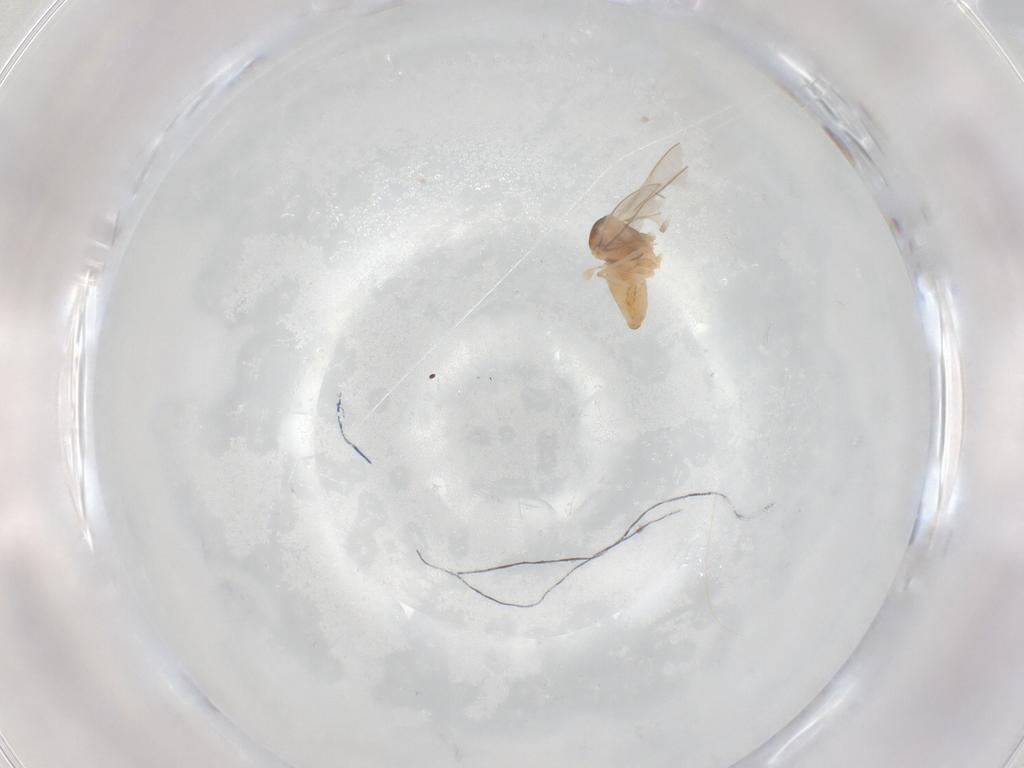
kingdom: Animalia
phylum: Arthropoda
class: Insecta
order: Diptera
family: Cecidomyiidae
